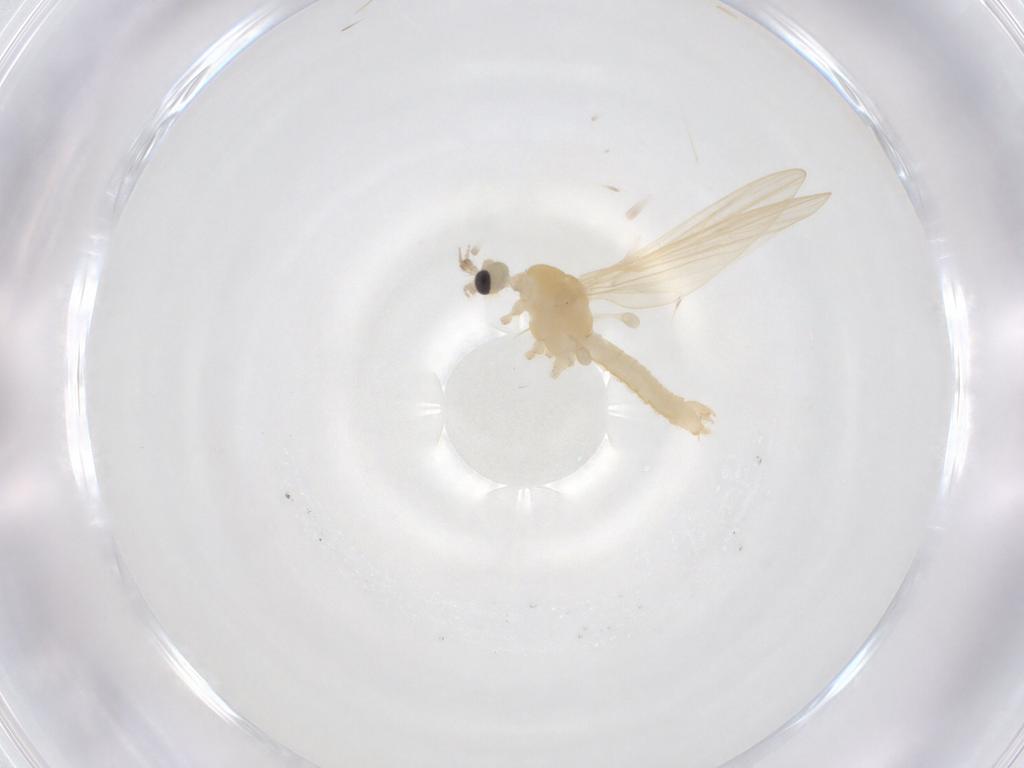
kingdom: Animalia
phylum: Arthropoda
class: Insecta
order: Diptera
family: Limoniidae
